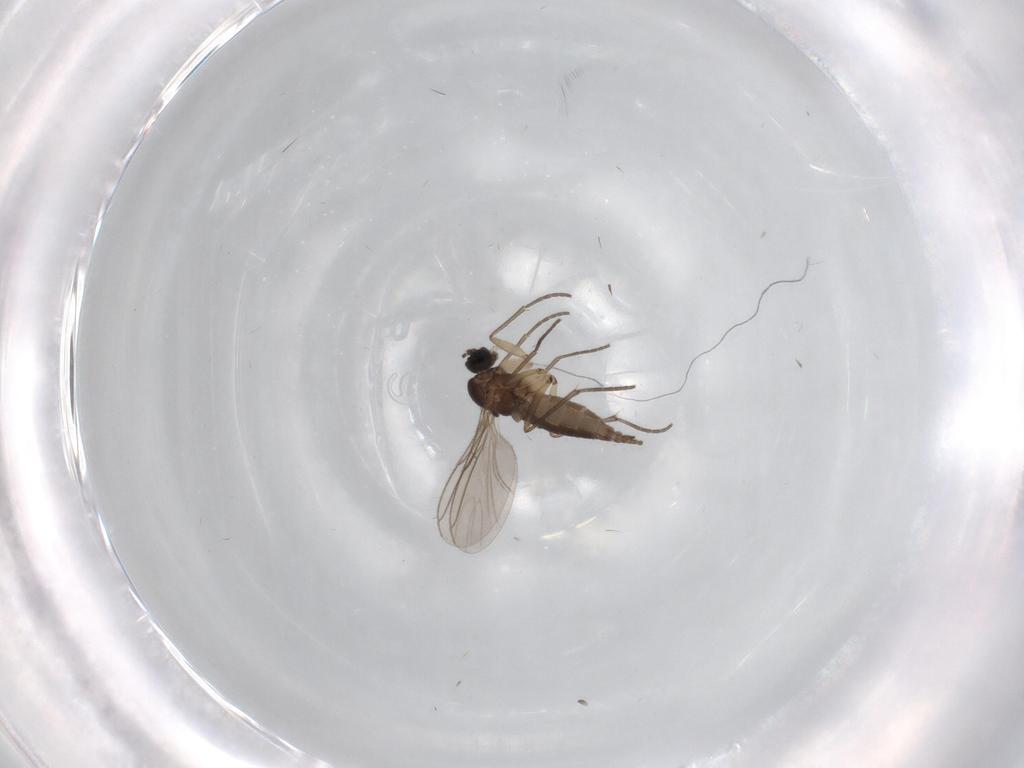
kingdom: Animalia
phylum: Arthropoda
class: Insecta
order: Diptera
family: Sciaridae
